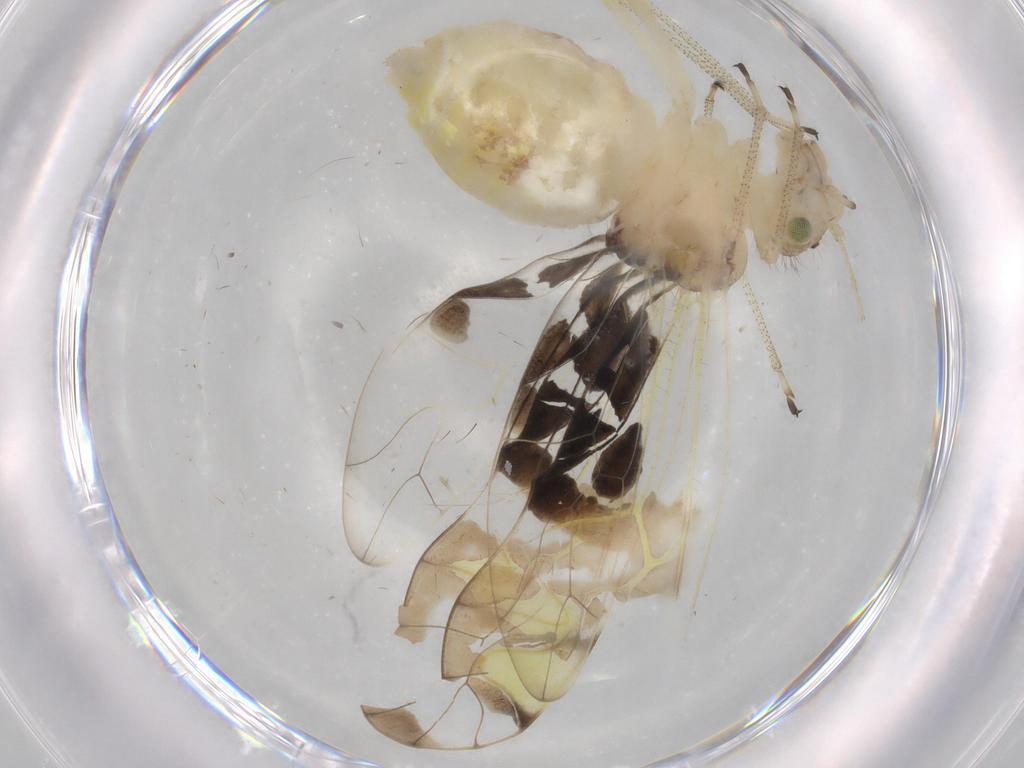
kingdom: Animalia
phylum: Arthropoda
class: Insecta
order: Psocodea
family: Amphipsocidae
